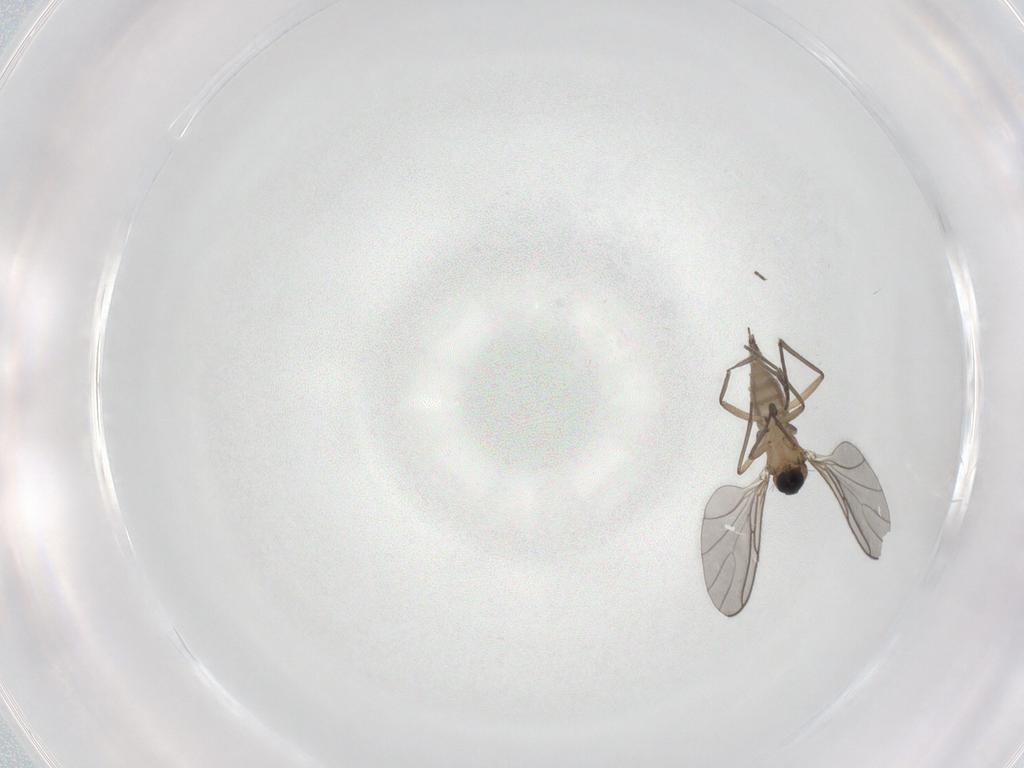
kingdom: Animalia
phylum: Arthropoda
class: Insecta
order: Diptera
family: Sciaridae
